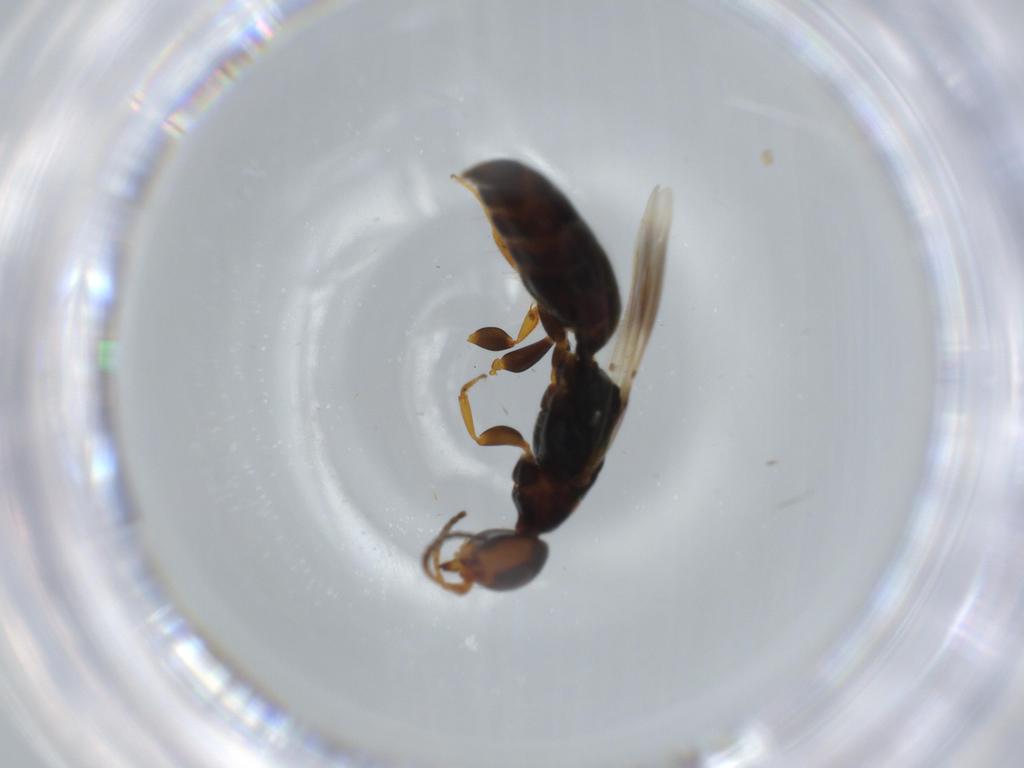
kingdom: Animalia
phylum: Arthropoda
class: Insecta
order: Hymenoptera
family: Bethylidae
